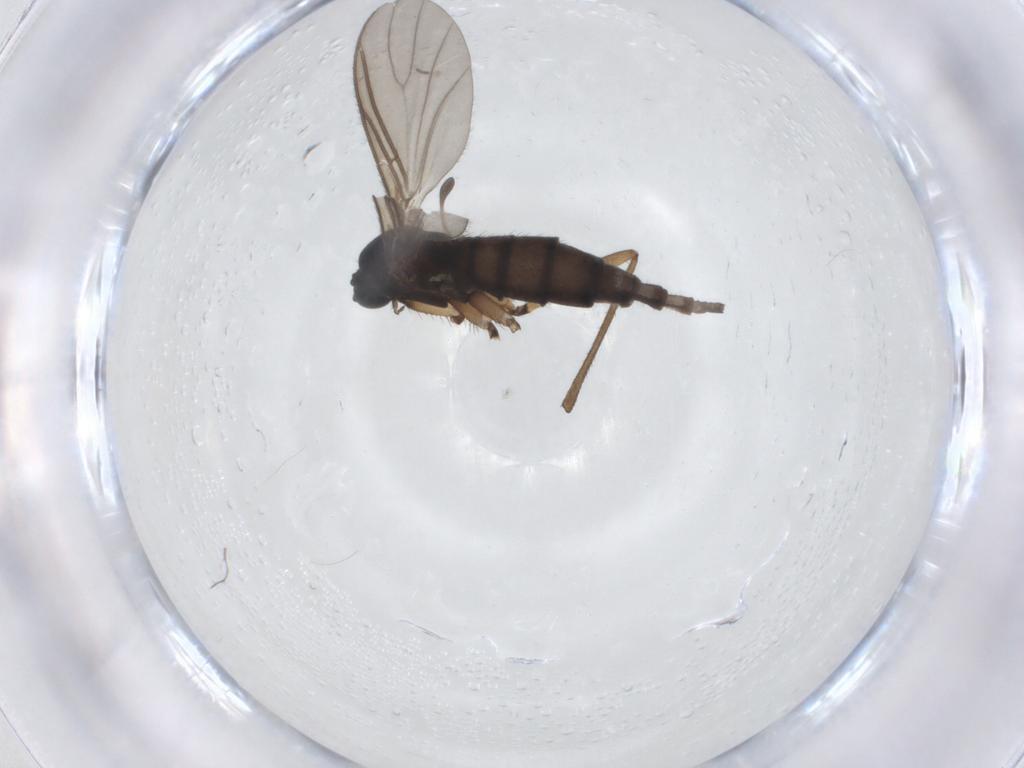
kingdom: Animalia
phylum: Arthropoda
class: Insecta
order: Diptera
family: Sciaridae
